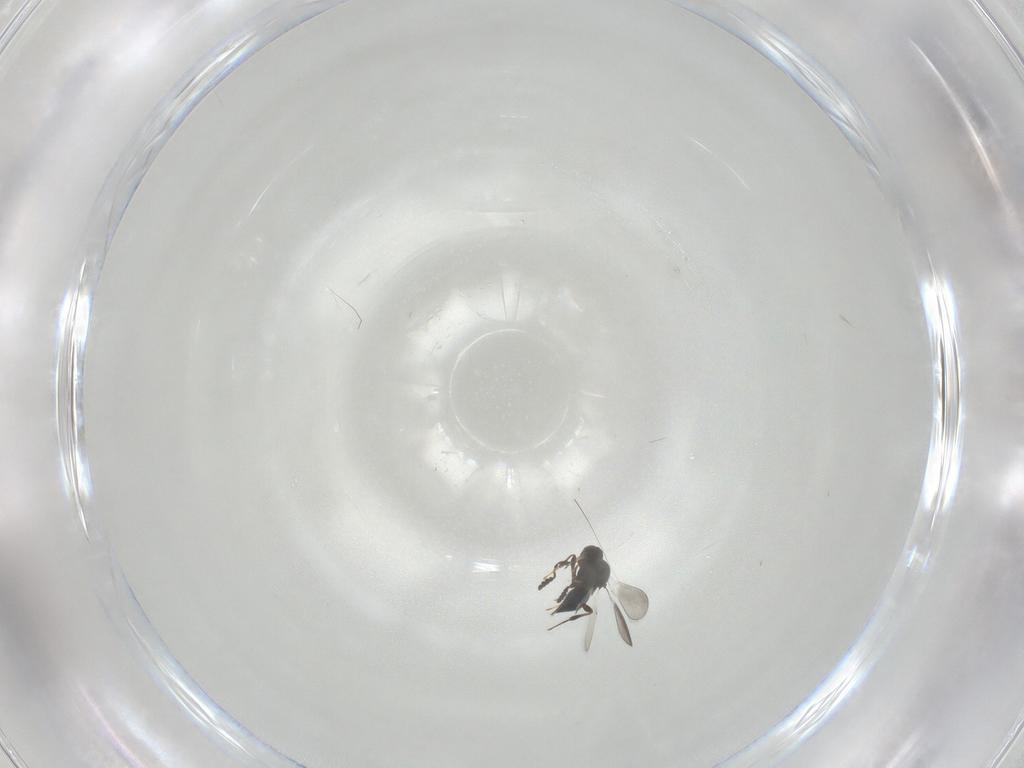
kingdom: Animalia
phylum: Arthropoda
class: Insecta
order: Hymenoptera
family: Platygastridae
